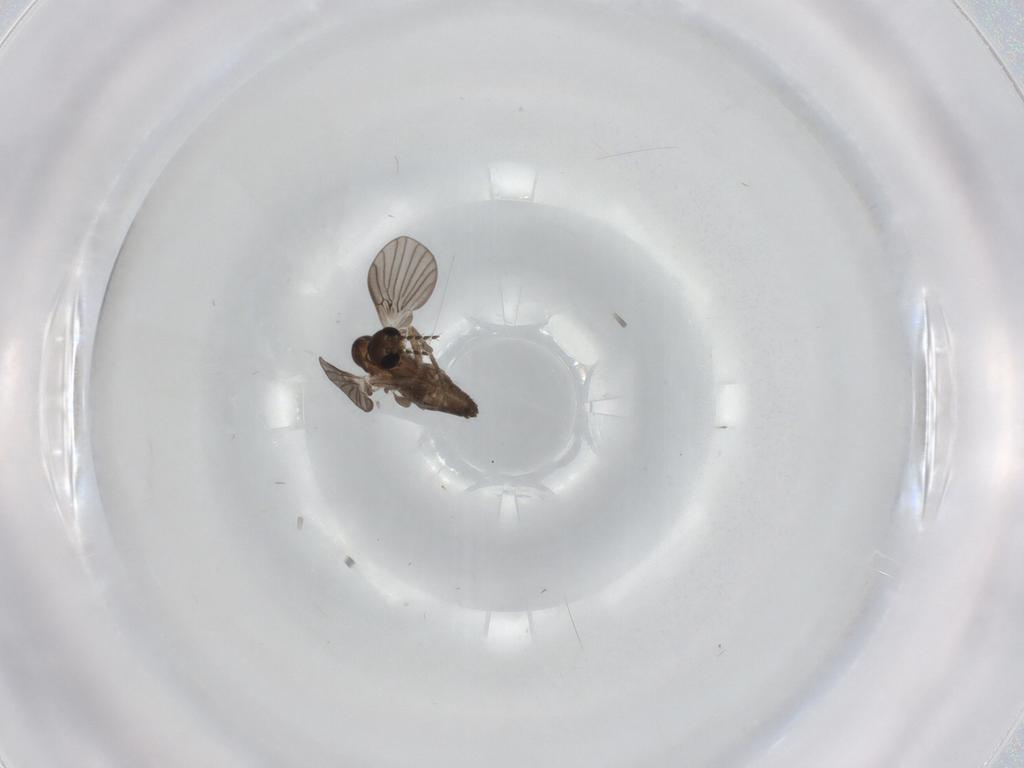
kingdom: Animalia
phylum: Arthropoda
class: Insecta
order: Diptera
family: Phoridae
